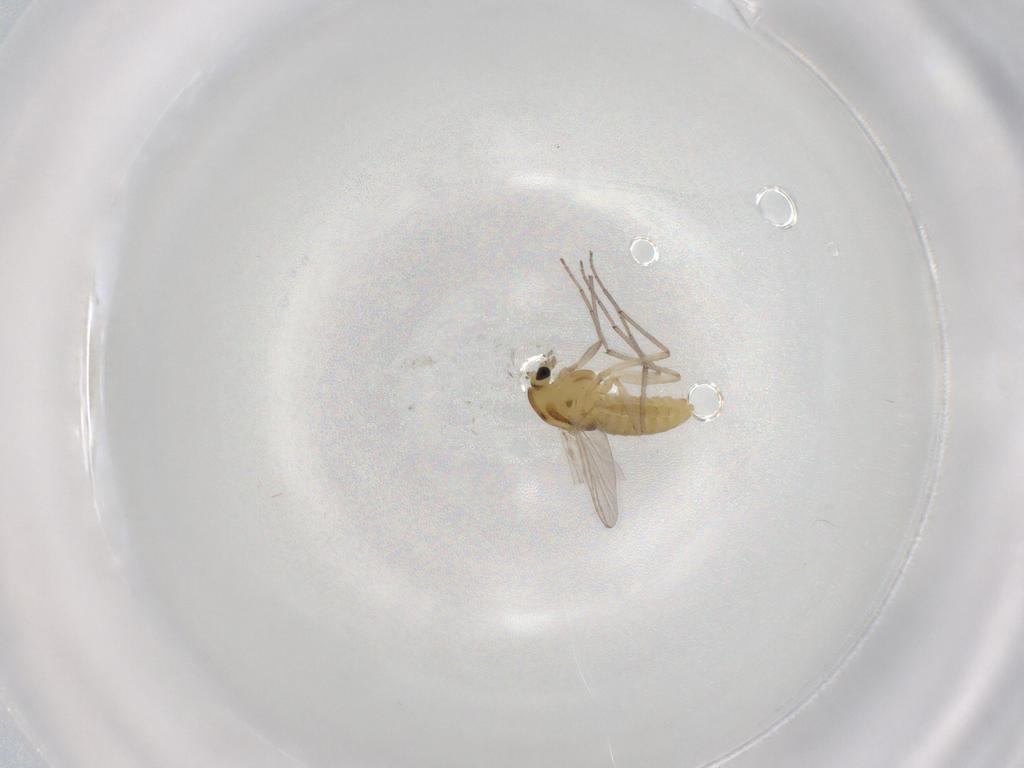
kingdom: Animalia
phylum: Arthropoda
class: Insecta
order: Diptera
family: Chironomidae
